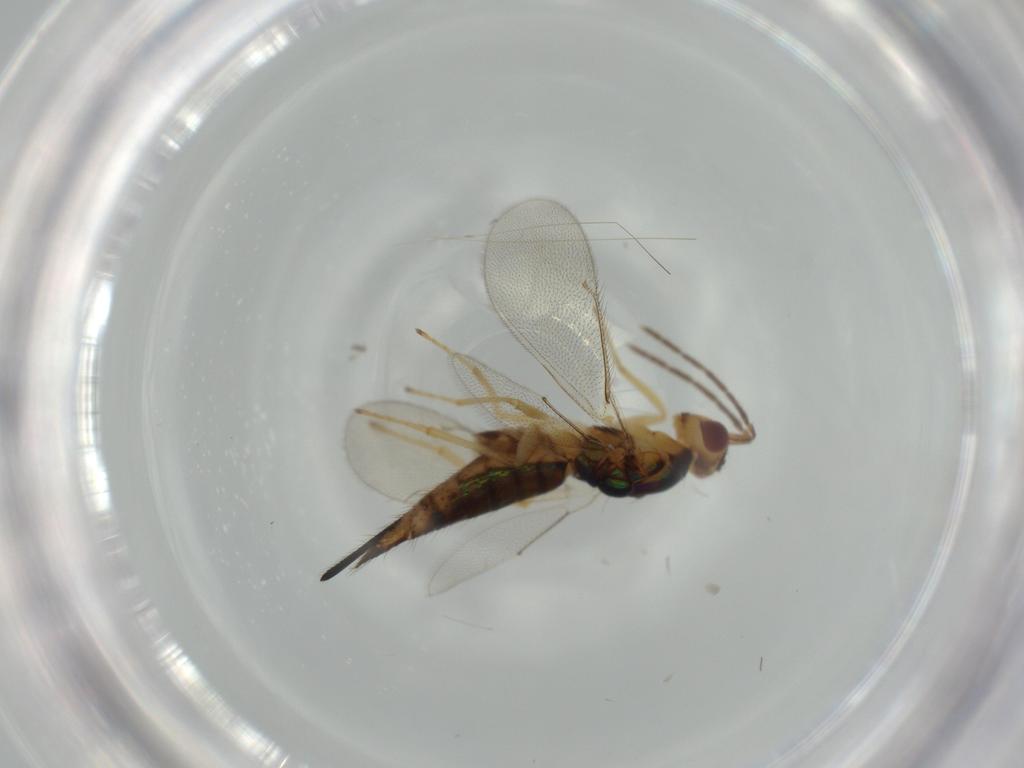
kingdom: Animalia
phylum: Arthropoda
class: Insecta
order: Hymenoptera
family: Eulophidae
